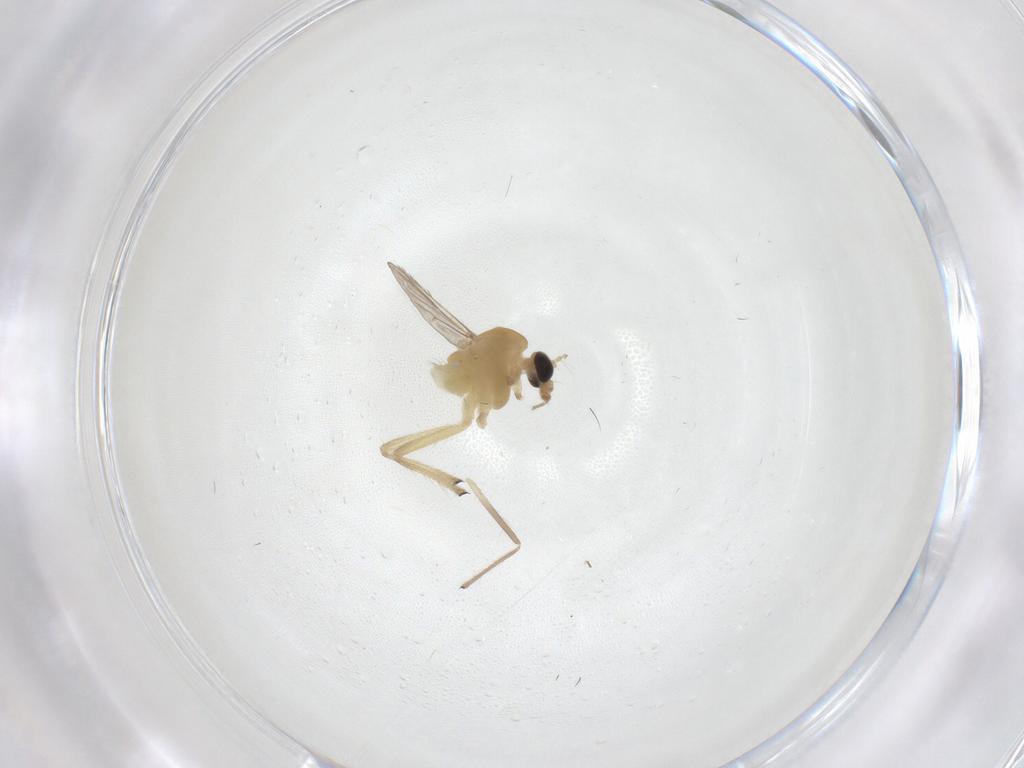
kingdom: Animalia
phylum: Arthropoda
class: Insecta
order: Diptera
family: Chironomidae
